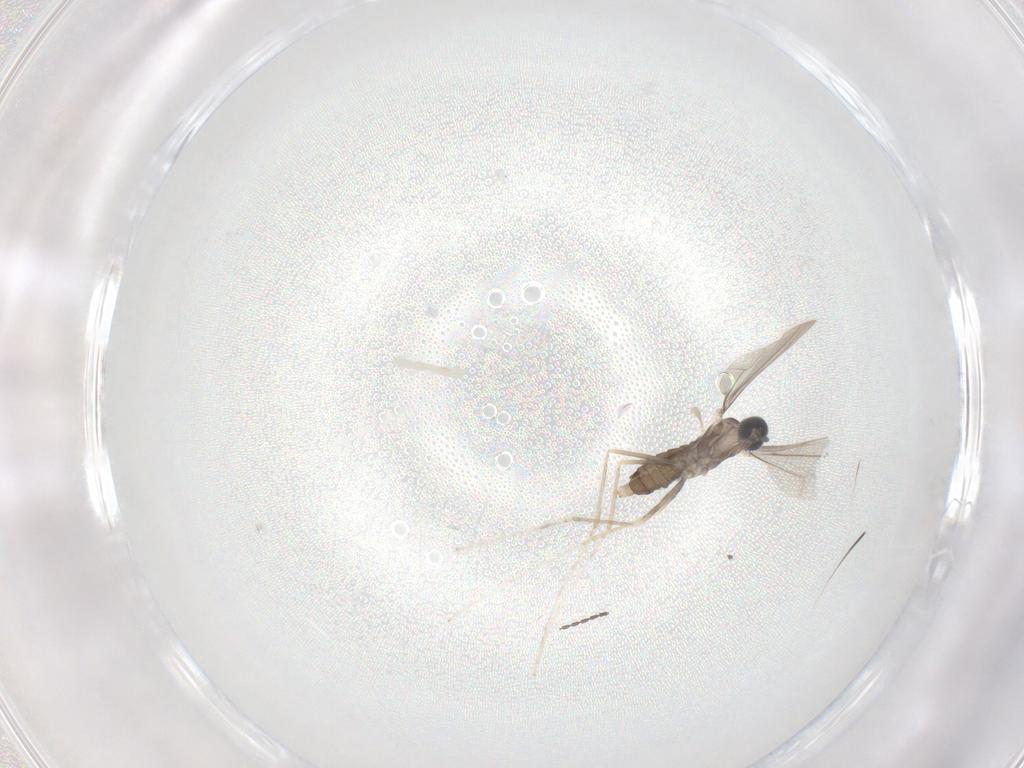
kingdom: Animalia
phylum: Arthropoda
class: Insecta
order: Diptera
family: Cecidomyiidae
